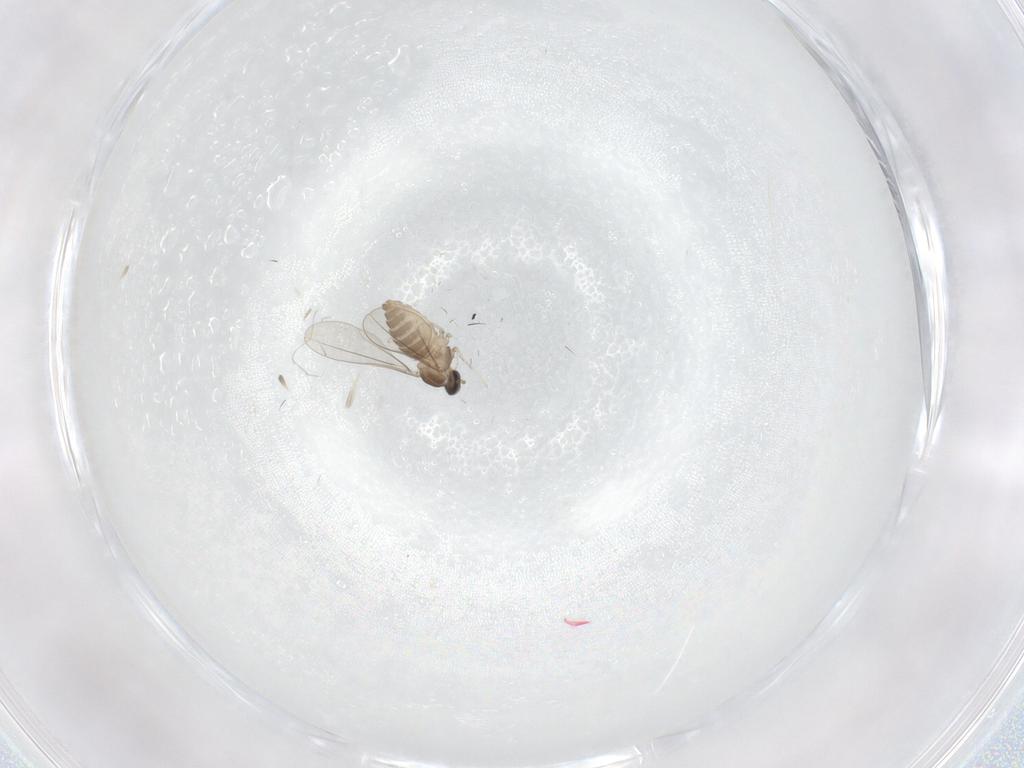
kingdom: Animalia
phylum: Arthropoda
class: Insecta
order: Diptera
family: Cecidomyiidae
